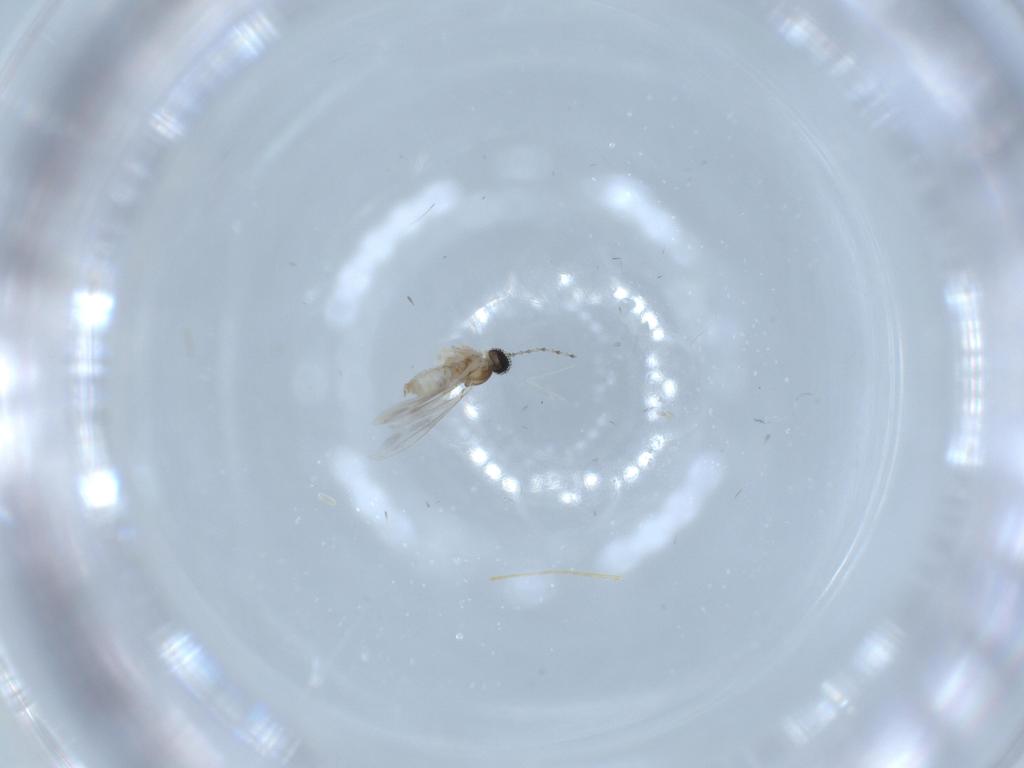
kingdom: Animalia
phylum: Arthropoda
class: Insecta
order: Diptera
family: Cecidomyiidae
